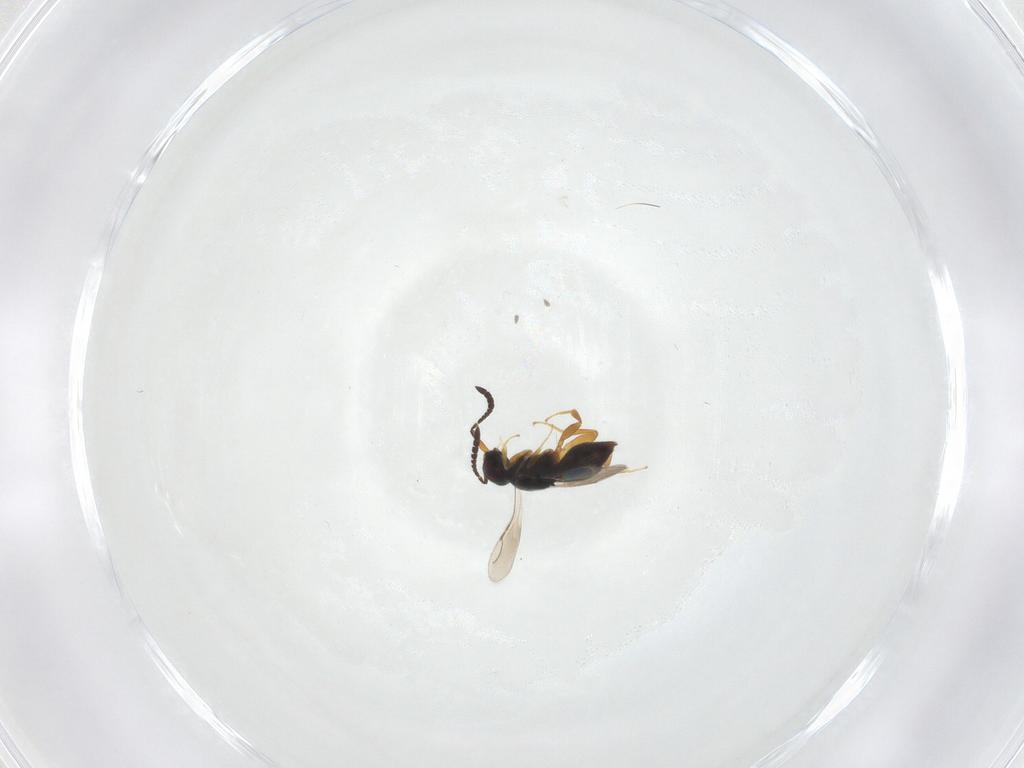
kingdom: Animalia
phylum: Arthropoda
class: Insecta
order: Hymenoptera
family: Ceraphronidae
